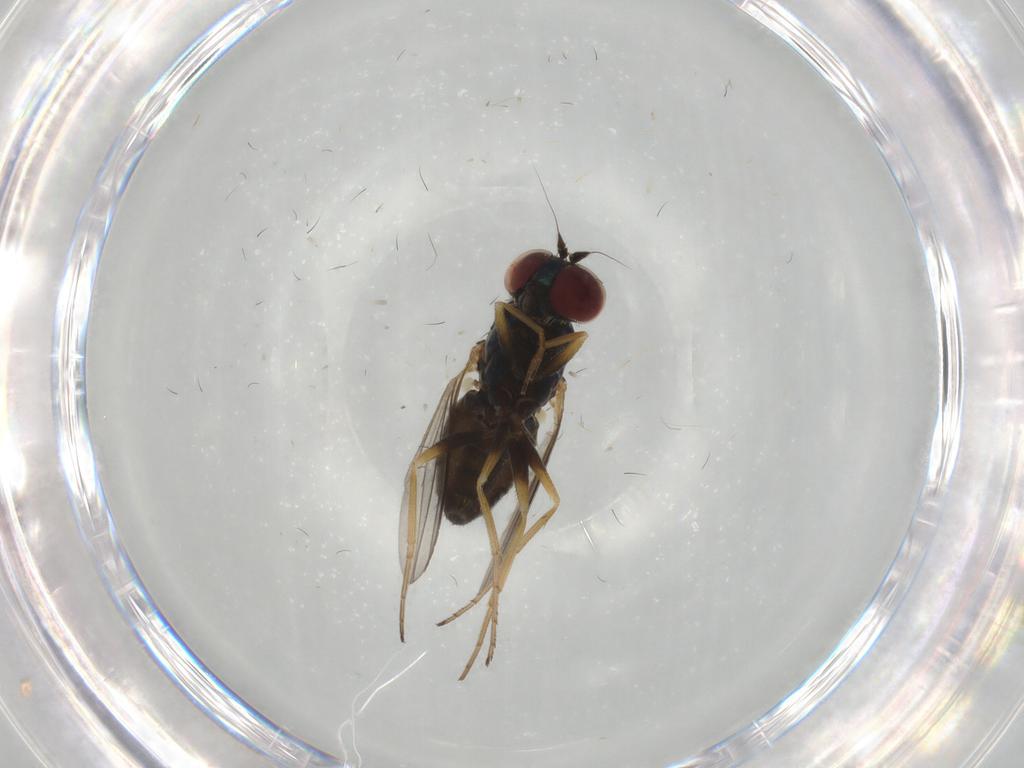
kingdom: Animalia
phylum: Arthropoda
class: Insecta
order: Diptera
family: Dolichopodidae
